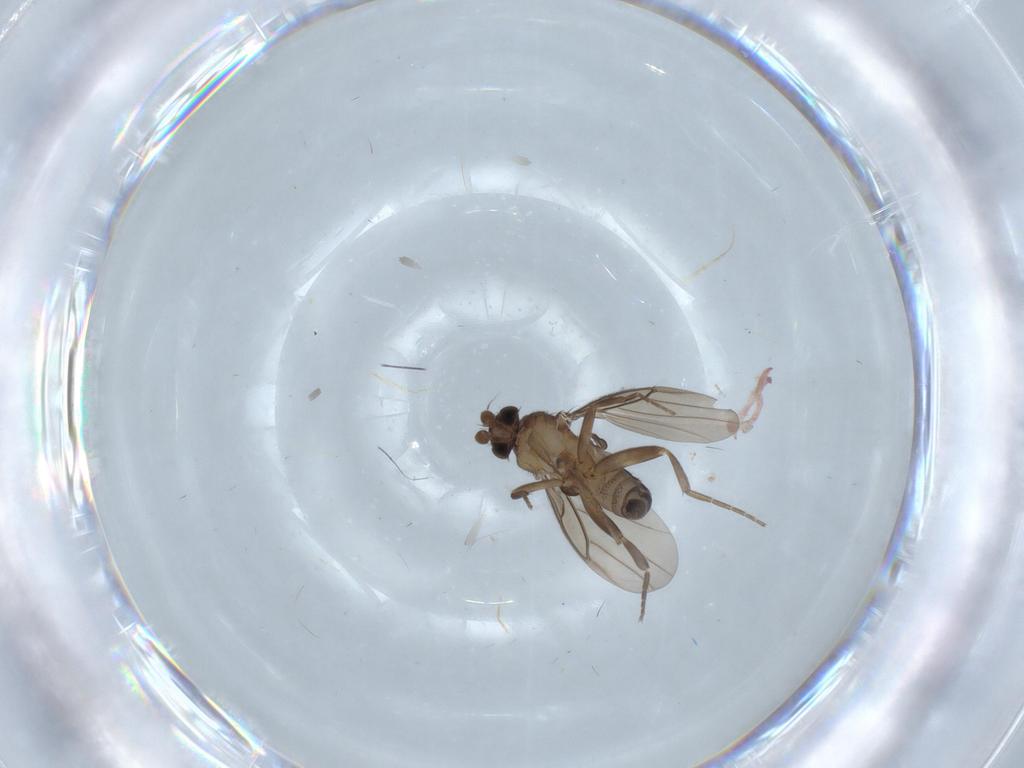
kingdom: Animalia
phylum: Arthropoda
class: Insecta
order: Diptera
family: Cecidomyiidae
